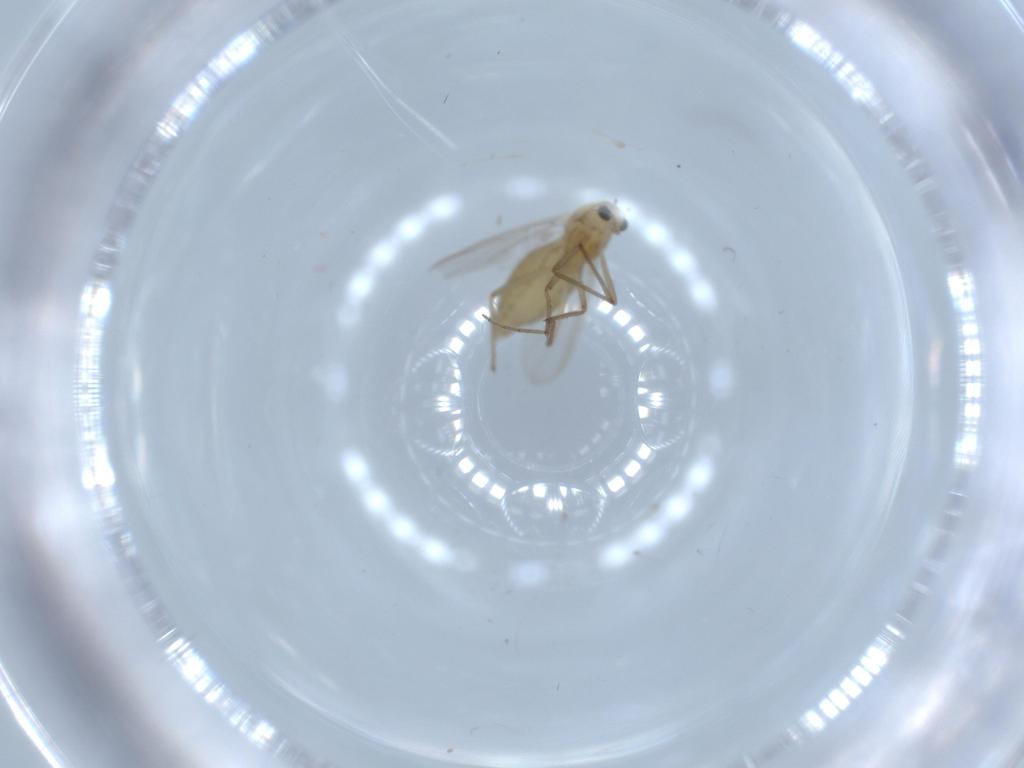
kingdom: Animalia
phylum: Arthropoda
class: Insecta
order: Diptera
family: Chironomidae
